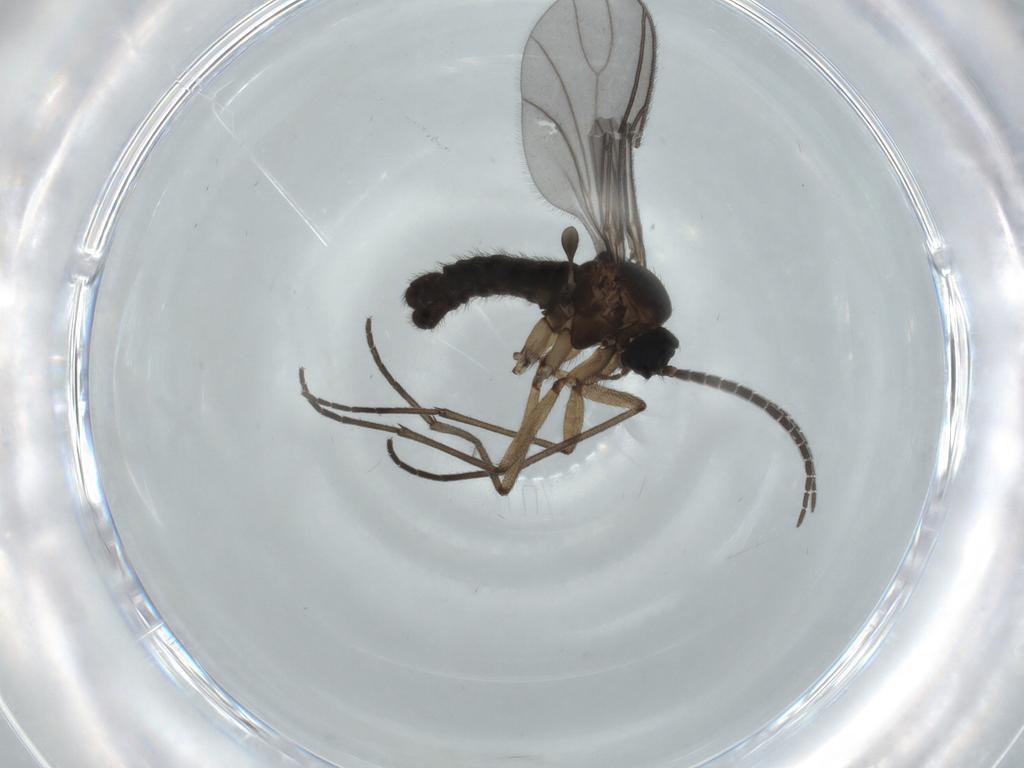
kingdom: Animalia
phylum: Arthropoda
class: Insecta
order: Diptera
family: Sciaridae
